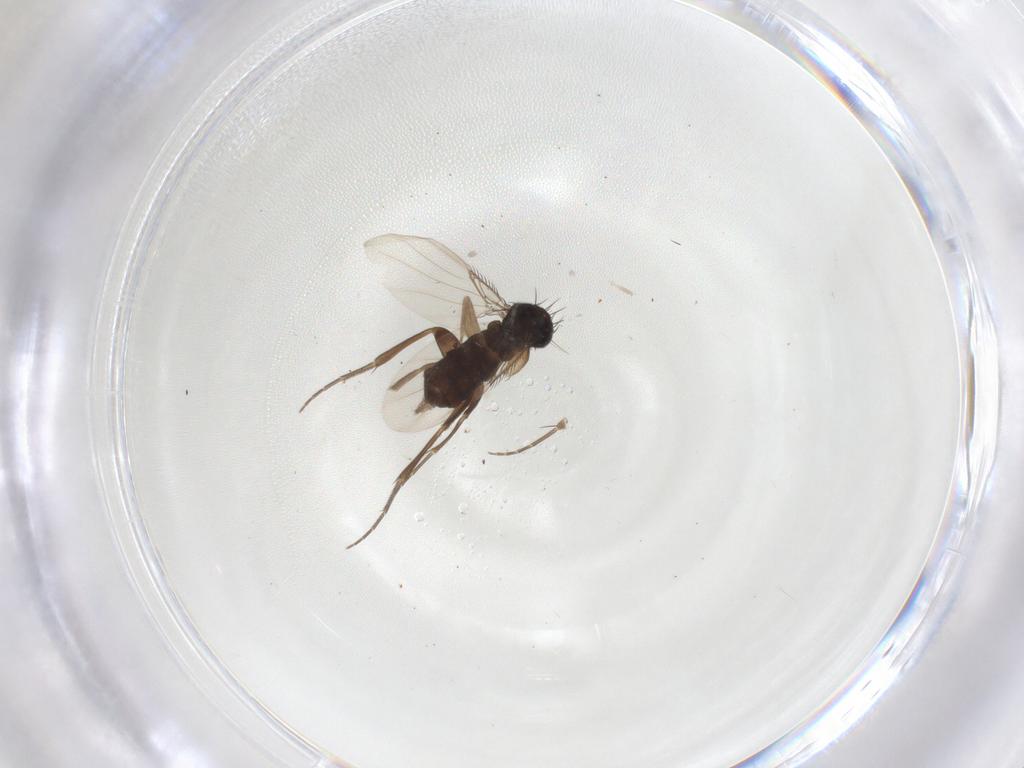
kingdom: Animalia
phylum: Arthropoda
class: Insecta
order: Diptera
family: Phoridae
